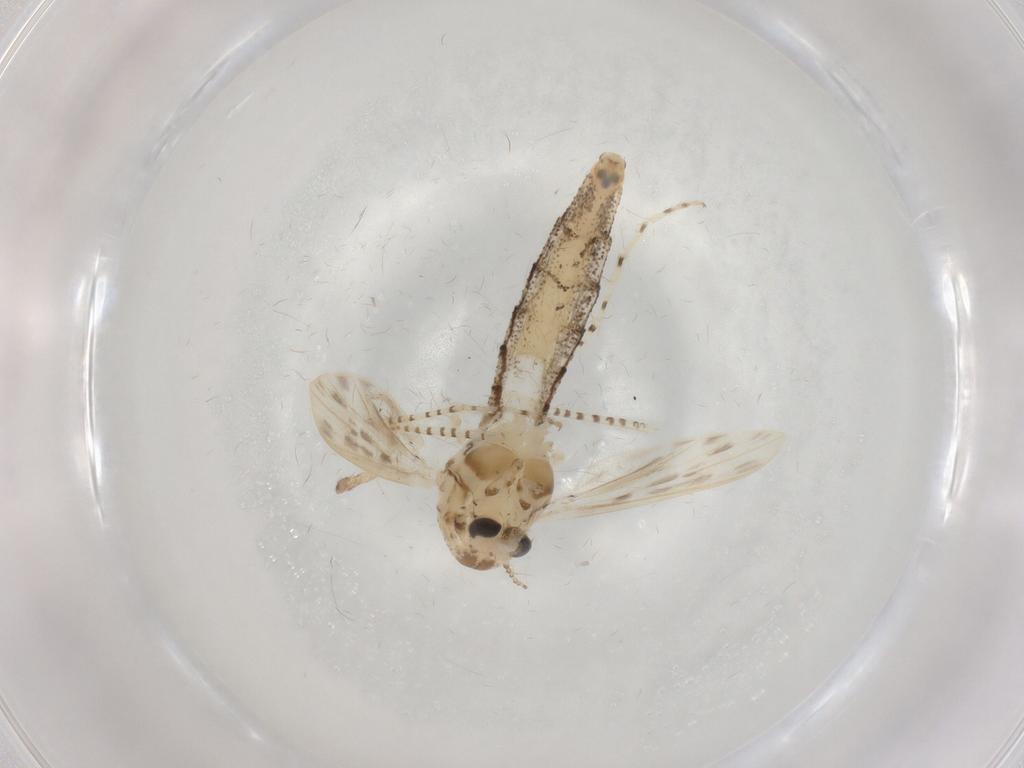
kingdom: Animalia
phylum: Arthropoda
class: Insecta
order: Diptera
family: Chaoboridae
